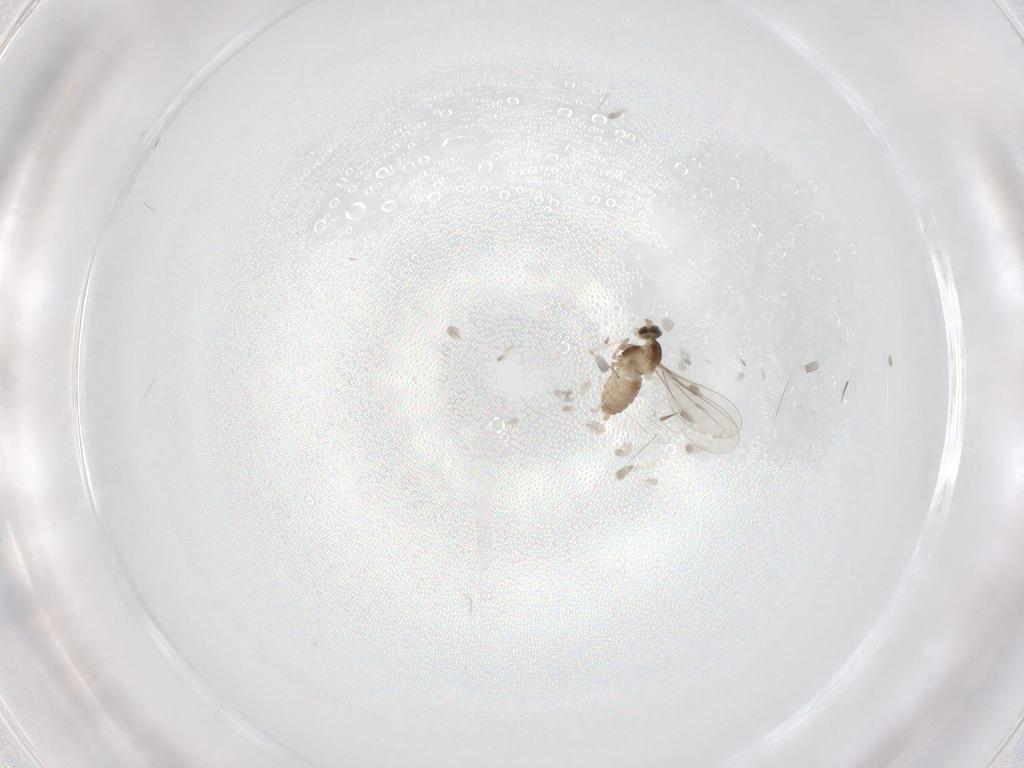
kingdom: Animalia
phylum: Arthropoda
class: Insecta
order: Diptera
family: Cecidomyiidae
